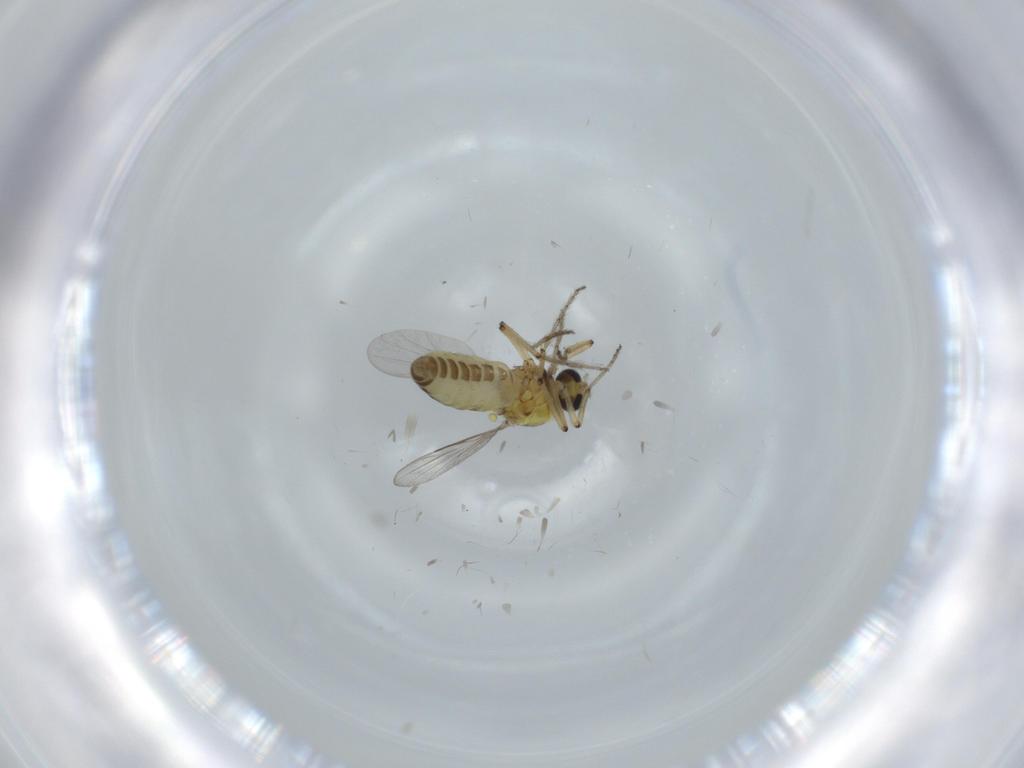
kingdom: Animalia
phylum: Arthropoda
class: Insecta
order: Diptera
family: Ceratopogonidae
